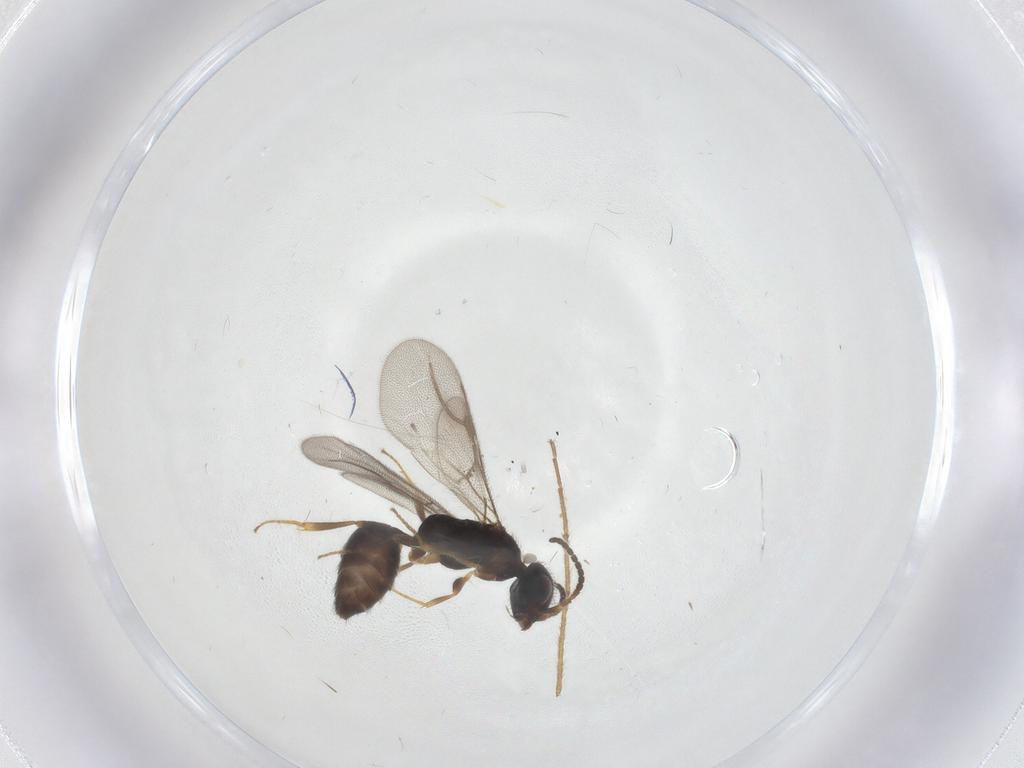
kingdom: Animalia
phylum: Arthropoda
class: Insecta
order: Hymenoptera
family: Bethylidae
